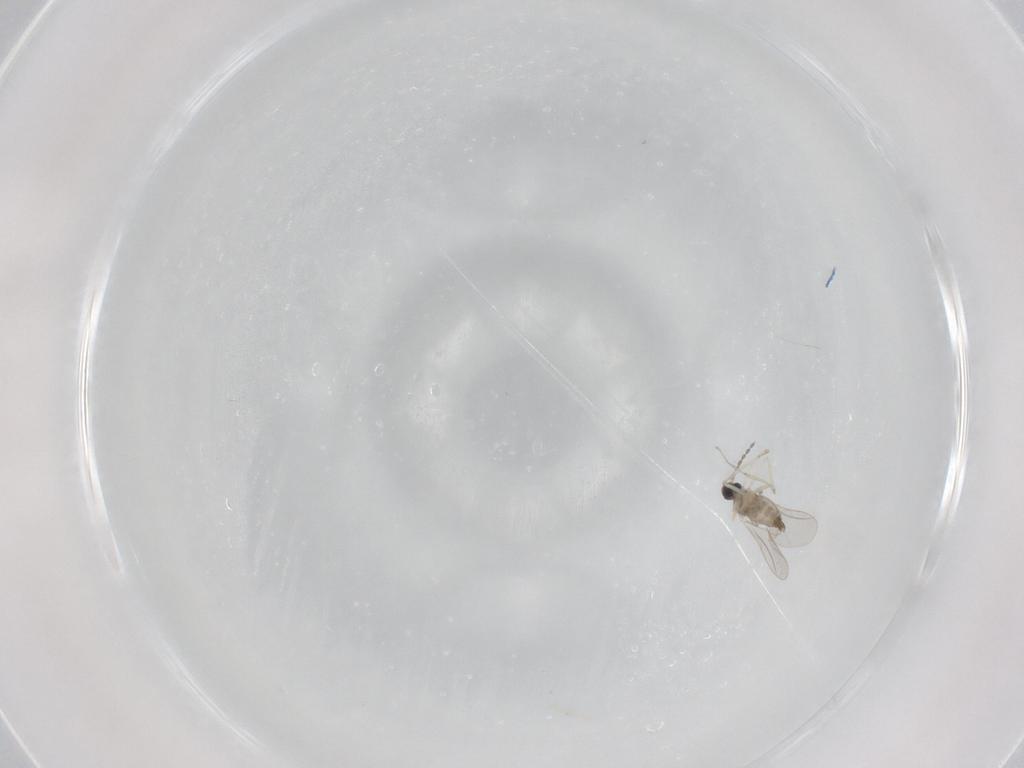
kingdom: Animalia
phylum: Arthropoda
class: Insecta
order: Diptera
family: Cecidomyiidae
